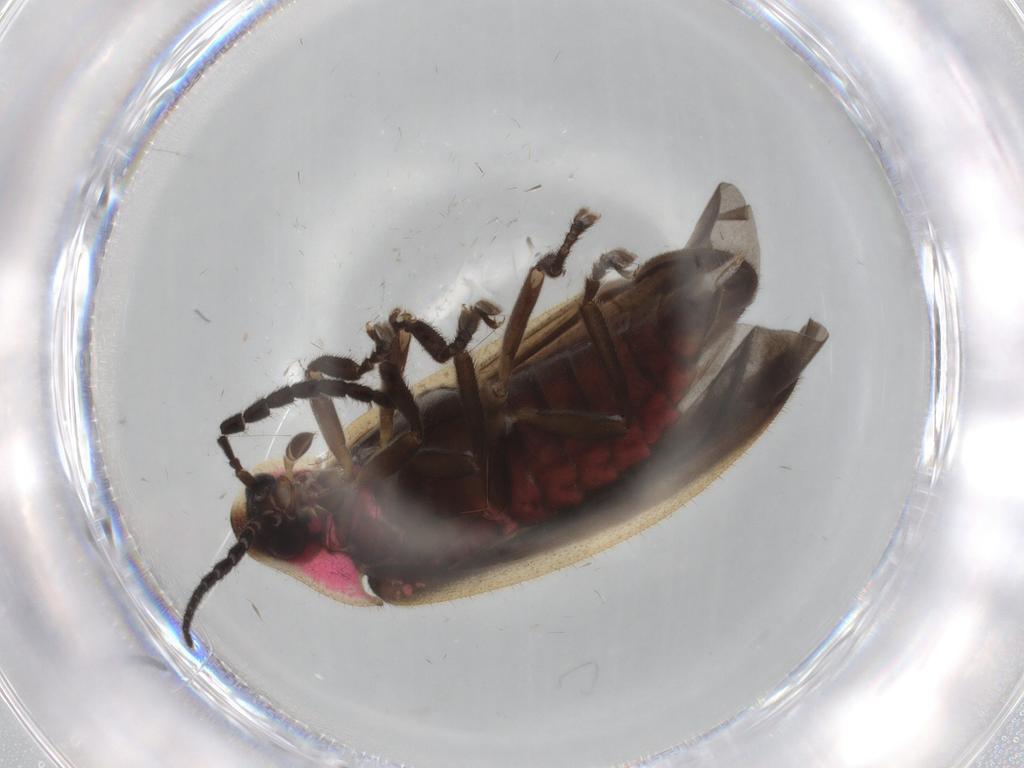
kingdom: Animalia
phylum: Arthropoda
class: Insecta
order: Coleoptera
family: Lampyridae
